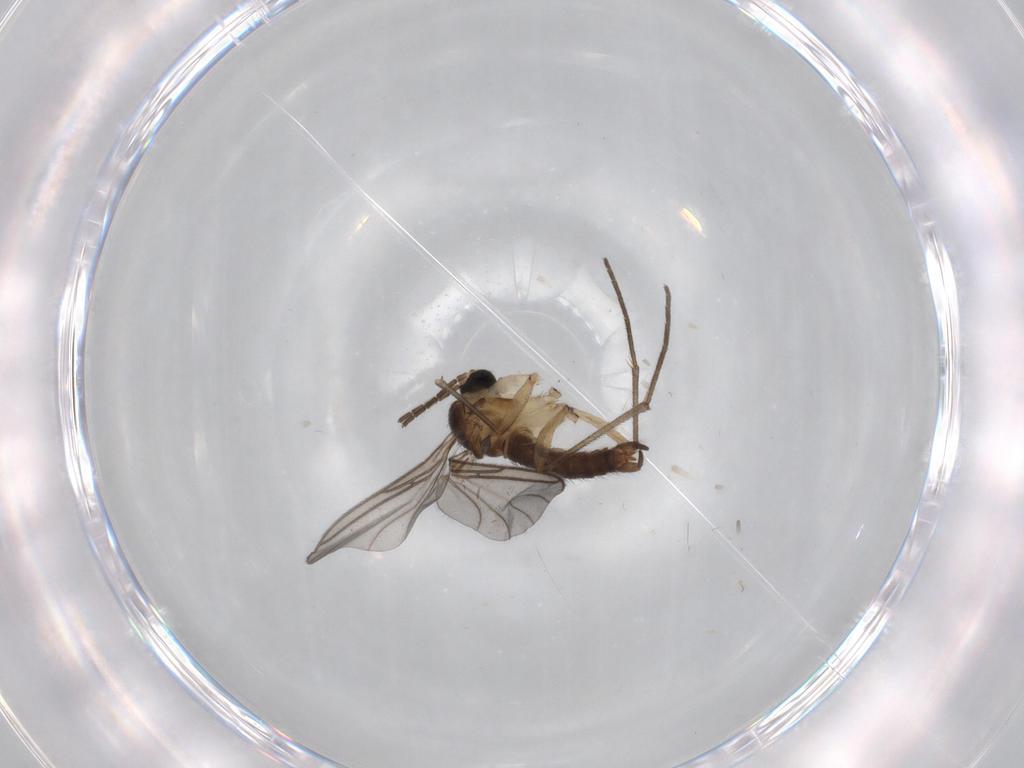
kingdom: Animalia
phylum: Arthropoda
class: Insecta
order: Diptera
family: Sciaridae
